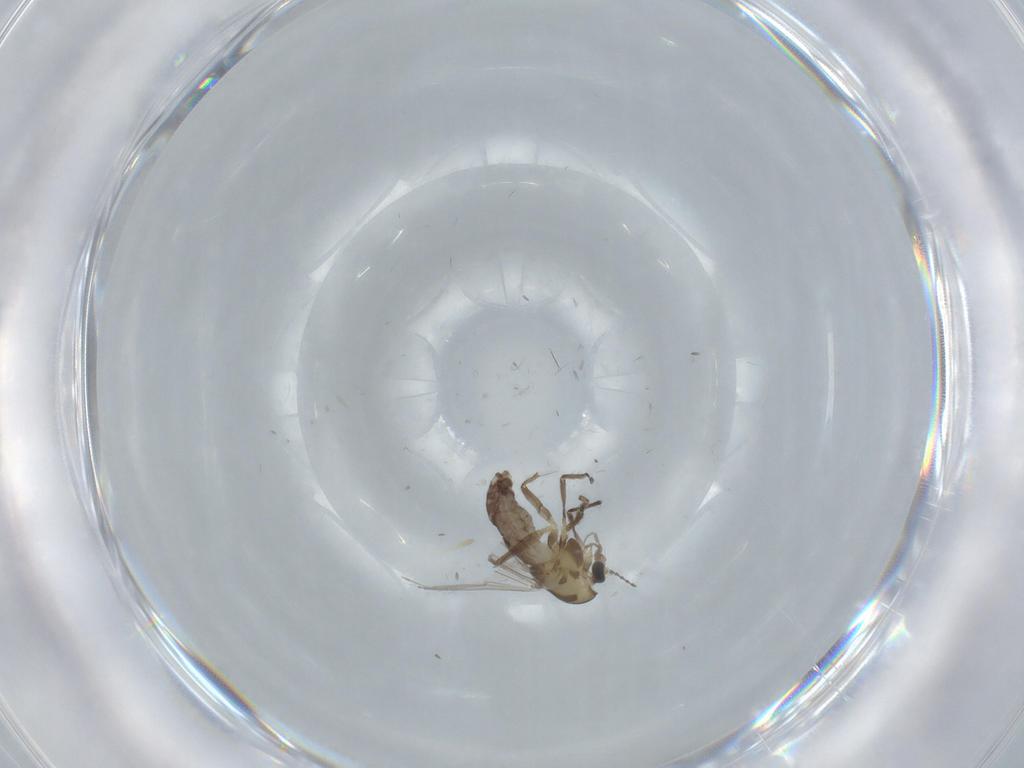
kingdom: Animalia
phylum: Arthropoda
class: Insecta
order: Diptera
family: Chironomidae
